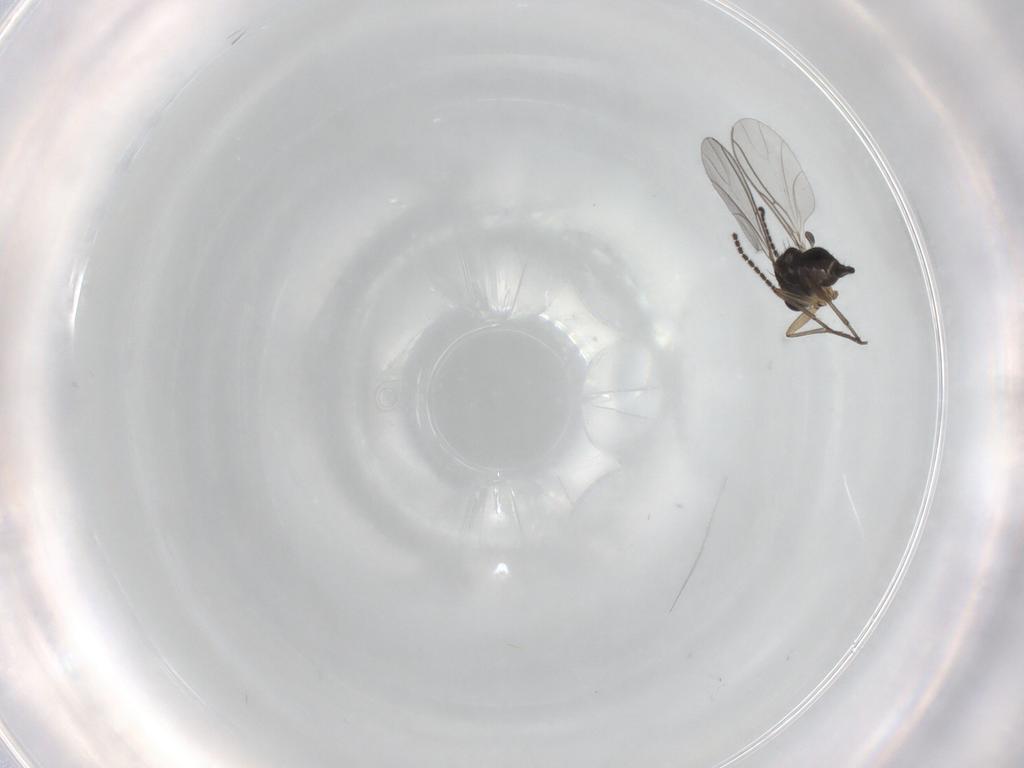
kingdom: Animalia
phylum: Arthropoda
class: Insecta
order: Diptera
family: Sciaridae
